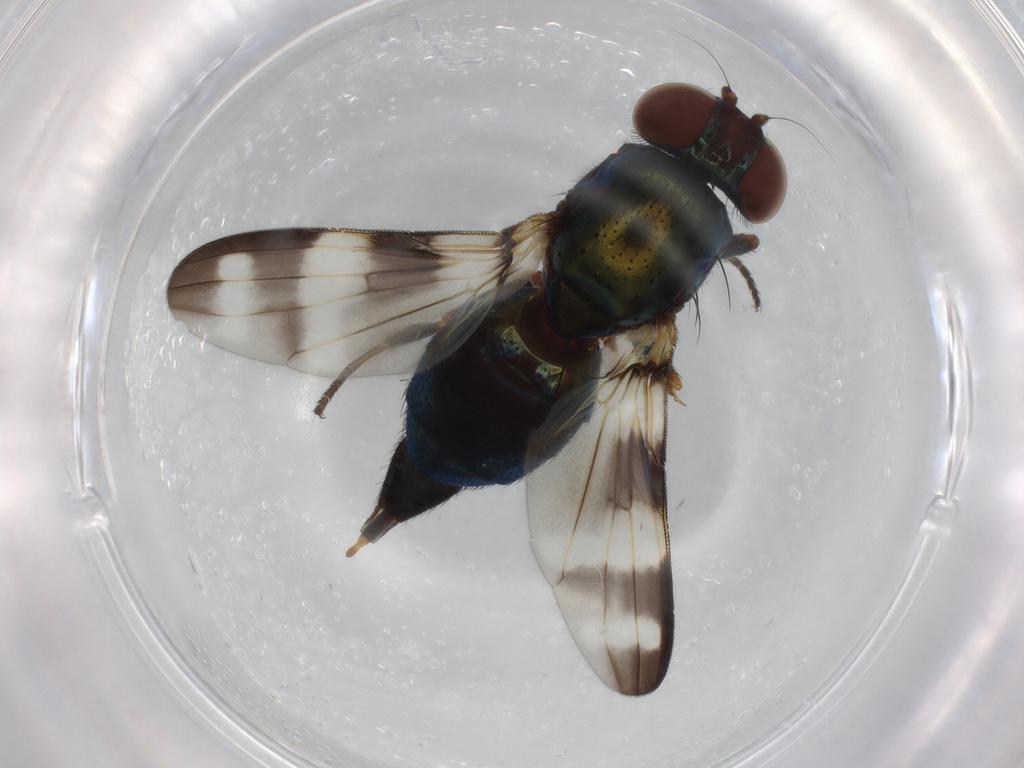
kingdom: Animalia
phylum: Arthropoda
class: Insecta
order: Diptera
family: Ulidiidae
